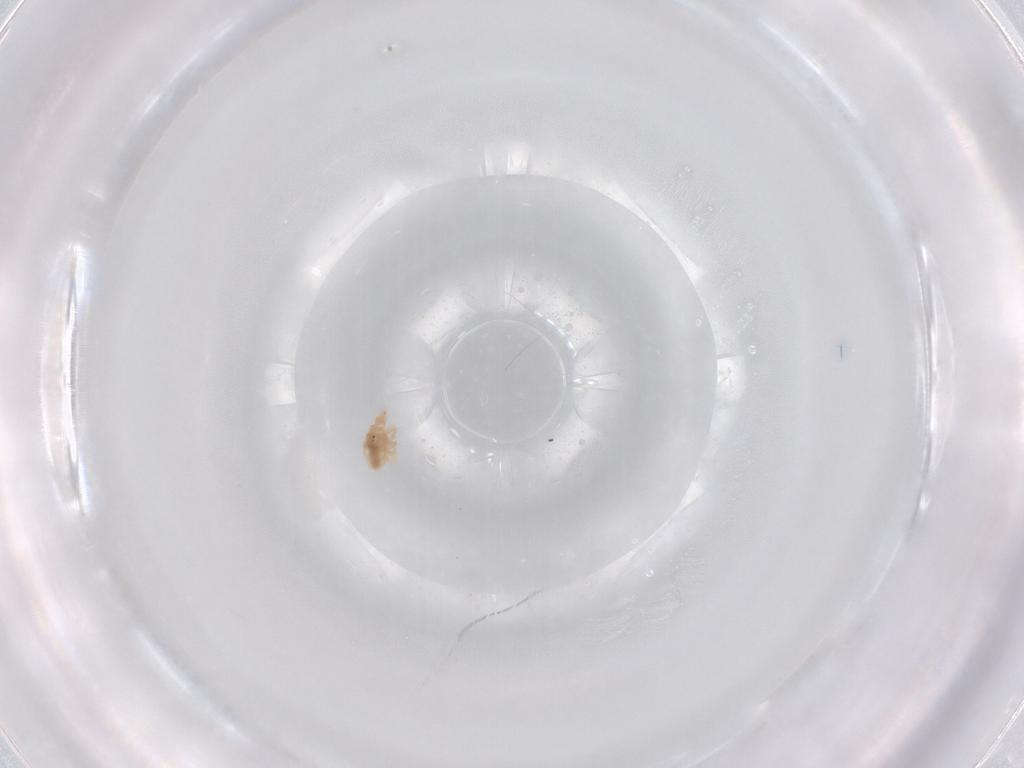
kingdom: Animalia
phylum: Arthropoda
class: Arachnida
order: Trombidiformes
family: Bdellidae
